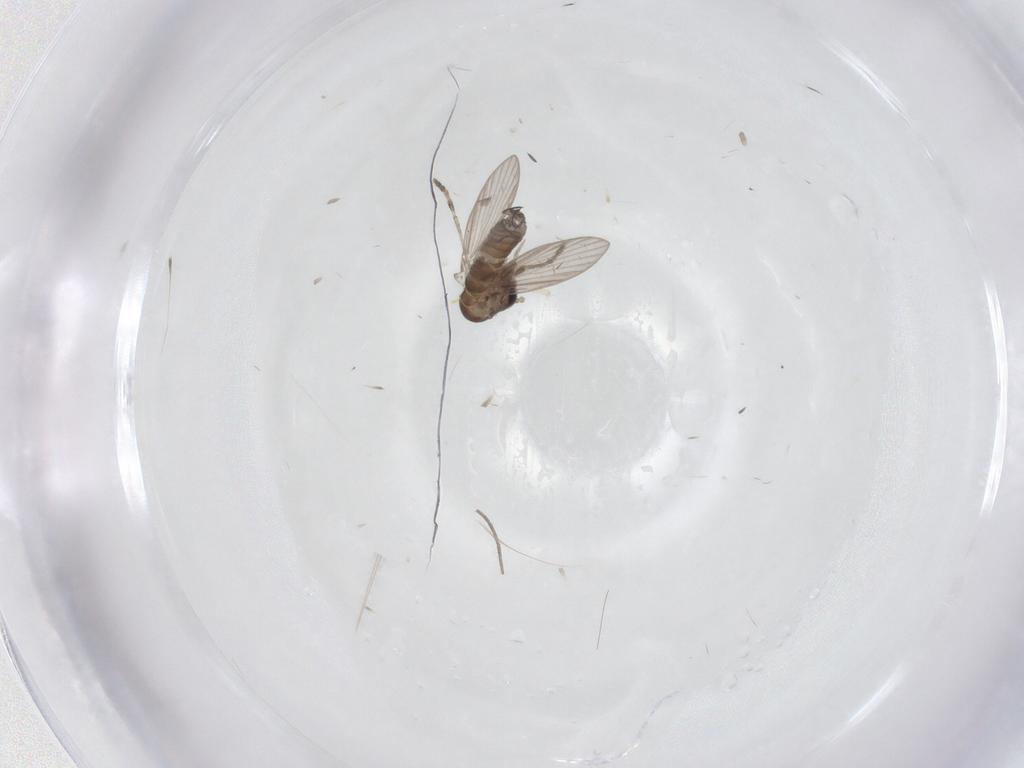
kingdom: Animalia
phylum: Arthropoda
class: Insecta
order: Diptera
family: Psychodidae
